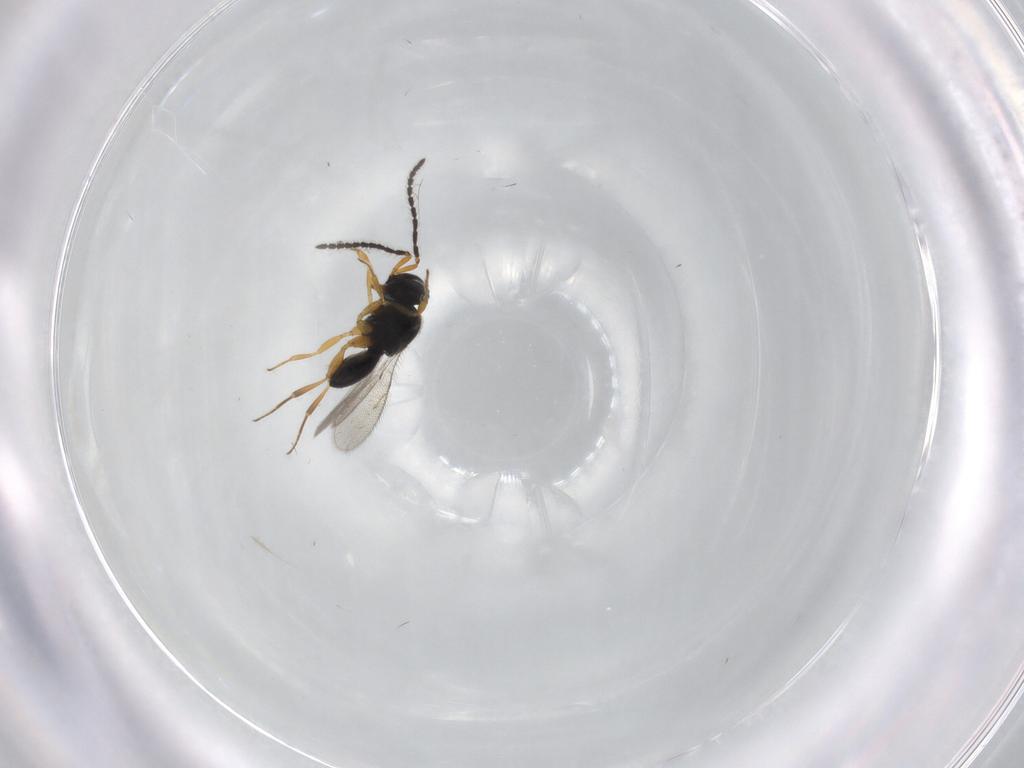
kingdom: Animalia
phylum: Arthropoda
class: Insecta
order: Hymenoptera
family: Scelionidae
